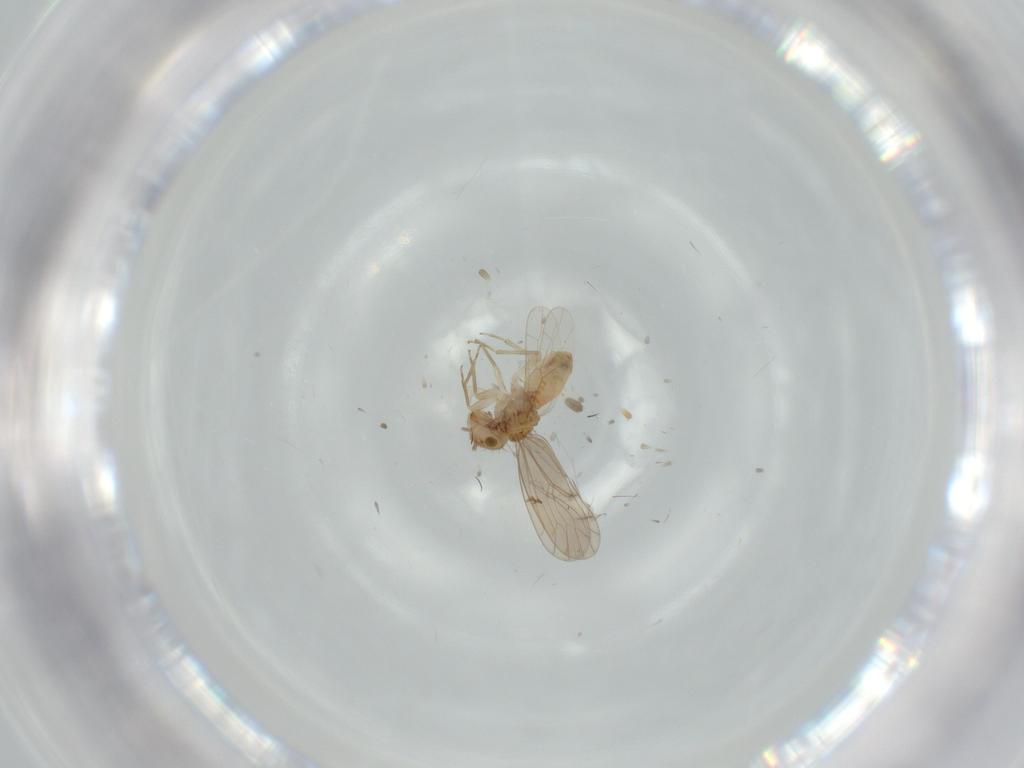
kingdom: Animalia
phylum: Arthropoda
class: Insecta
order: Psocodea
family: Ectopsocidae
